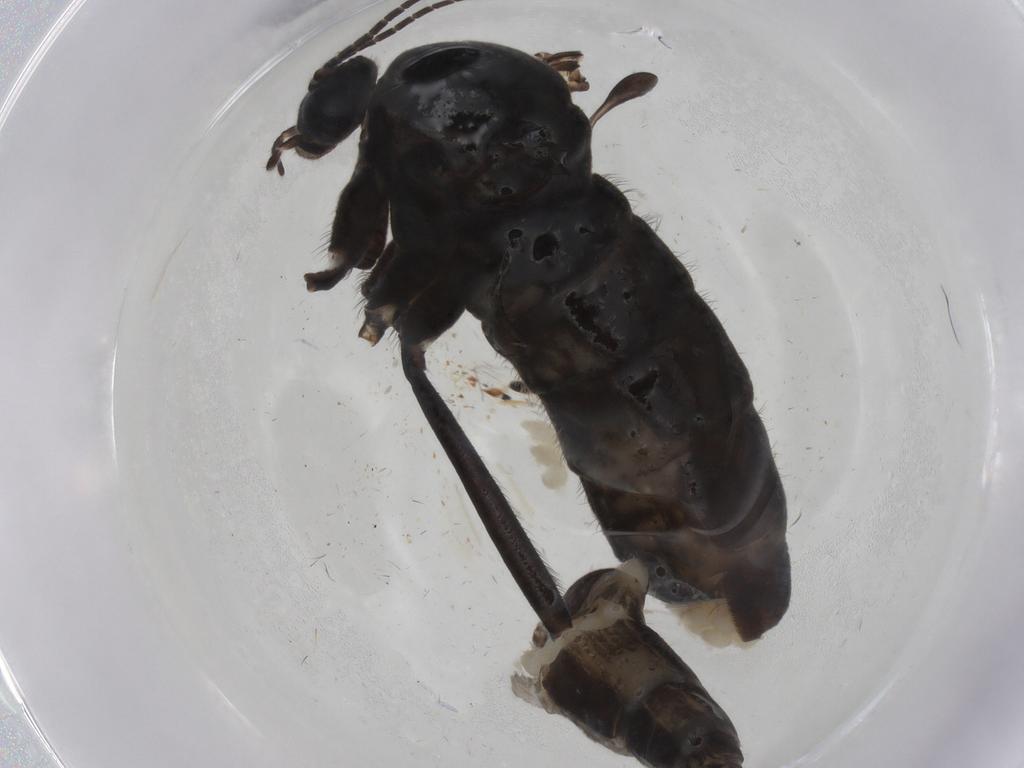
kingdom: Animalia
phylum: Arthropoda
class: Insecta
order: Diptera
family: Sciaridae
